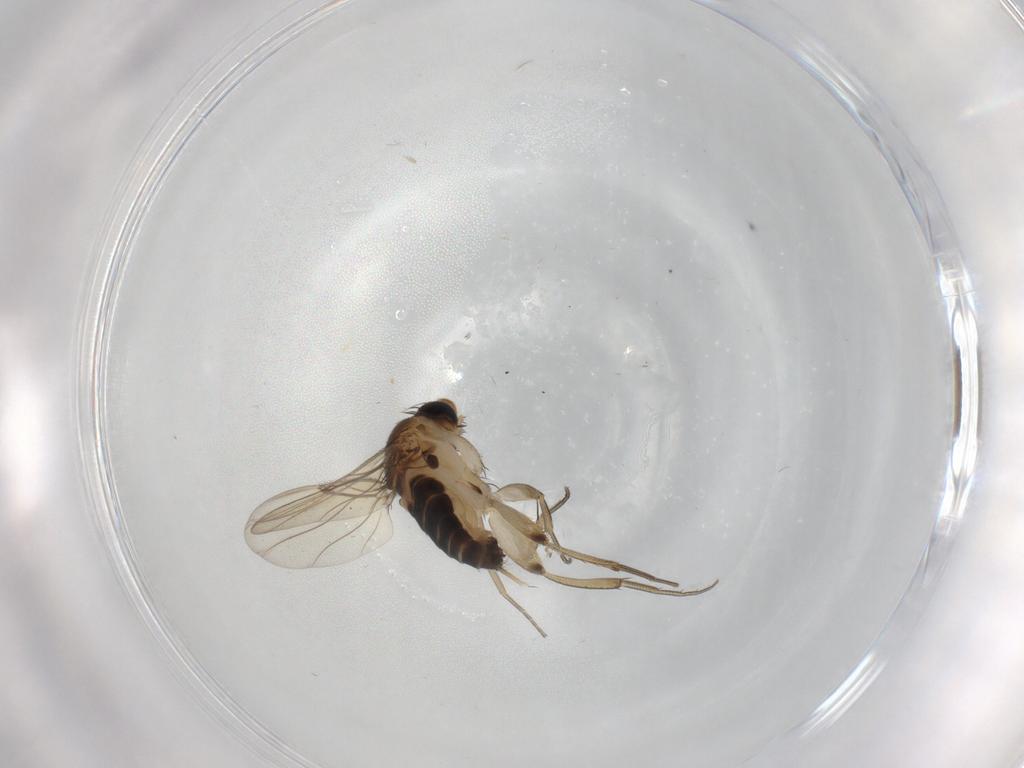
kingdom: Animalia
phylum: Arthropoda
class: Insecta
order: Diptera
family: Phoridae
